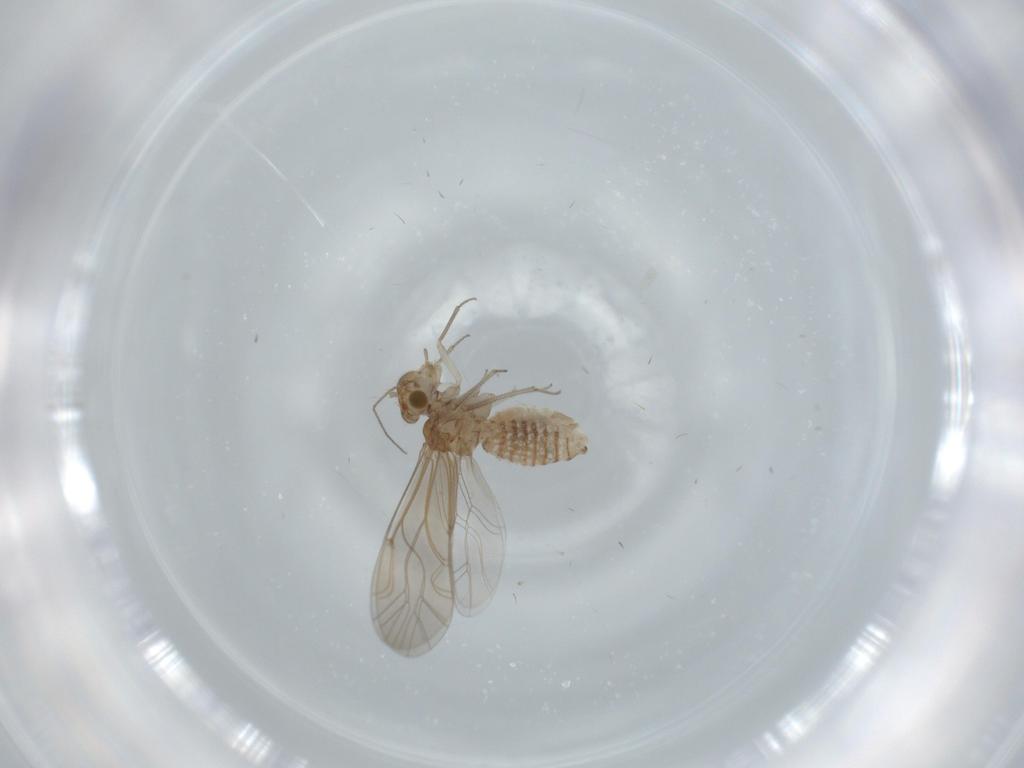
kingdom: Animalia
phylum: Arthropoda
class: Insecta
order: Psocodea
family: Lachesillidae
